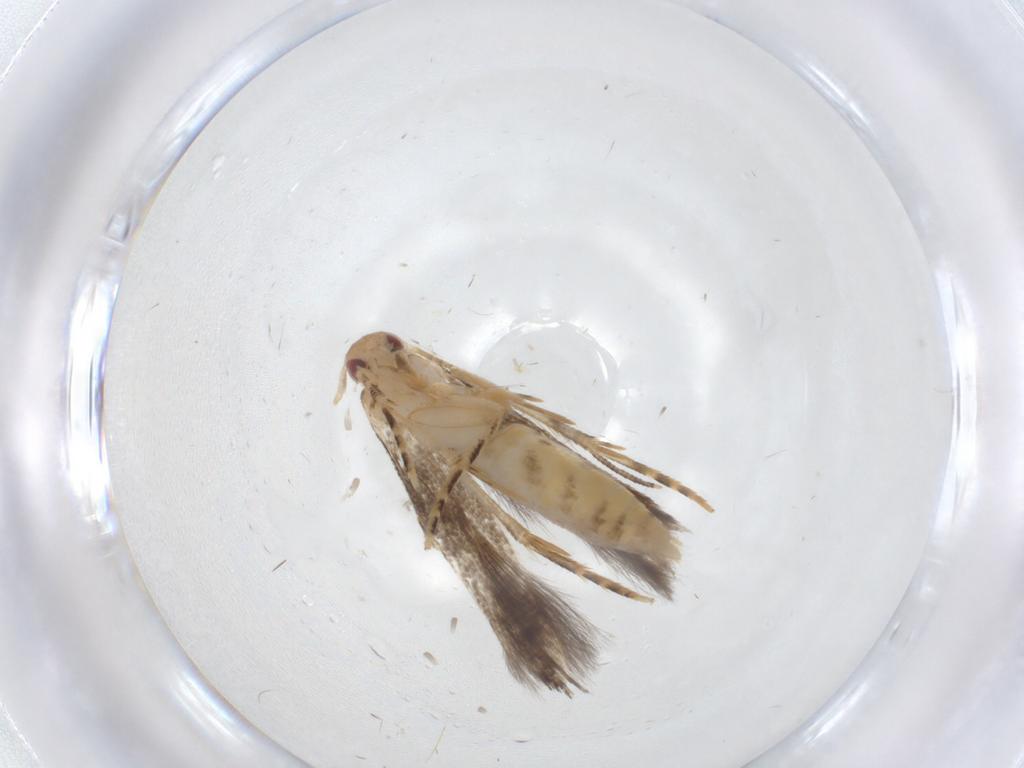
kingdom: Animalia
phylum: Arthropoda
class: Insecta
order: Lepidoptera
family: Momphidae
